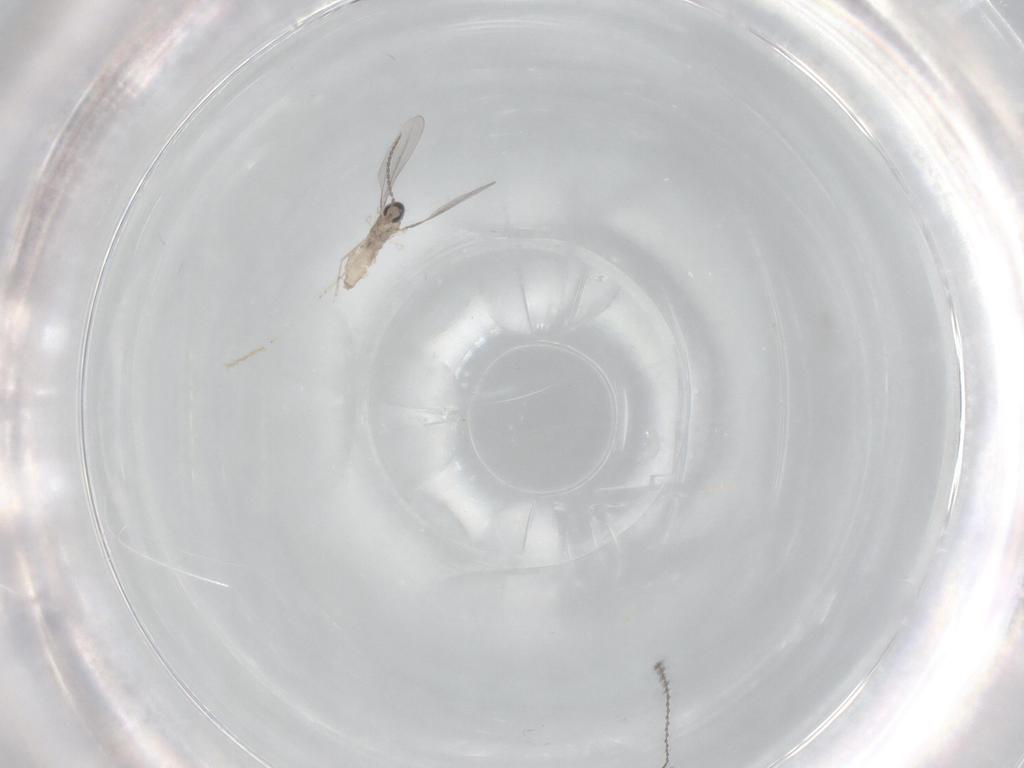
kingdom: Animalia
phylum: Arthropoda
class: Insecta
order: Diptera
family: Cecidomyiidae
